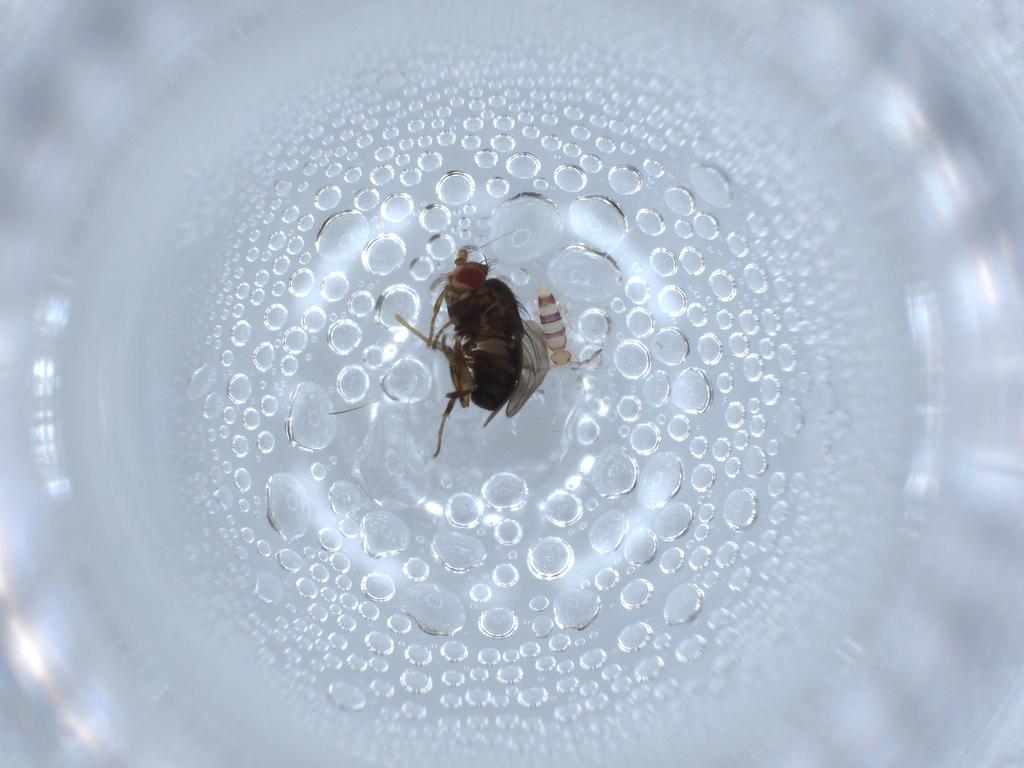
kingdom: Animalia
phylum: Arthropoda
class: Insecta
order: Diptera
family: Sphaeroceridae
